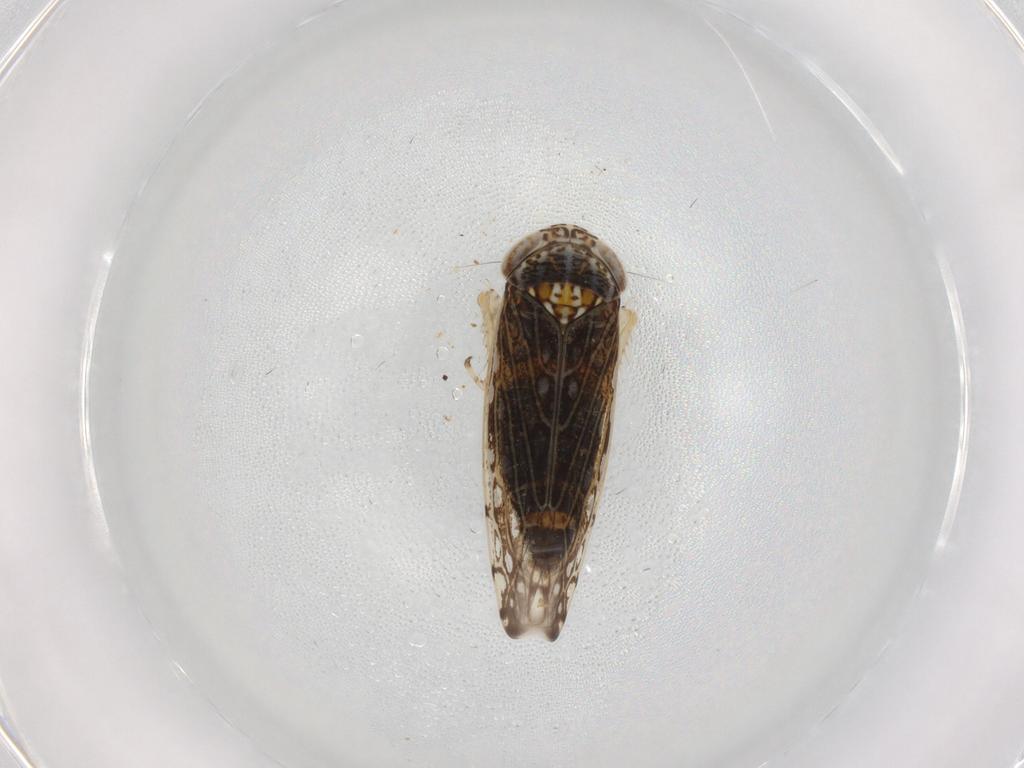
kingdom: Animalia
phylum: Arthropoda
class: Insecta
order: Hemiptera
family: Cicadellidae
